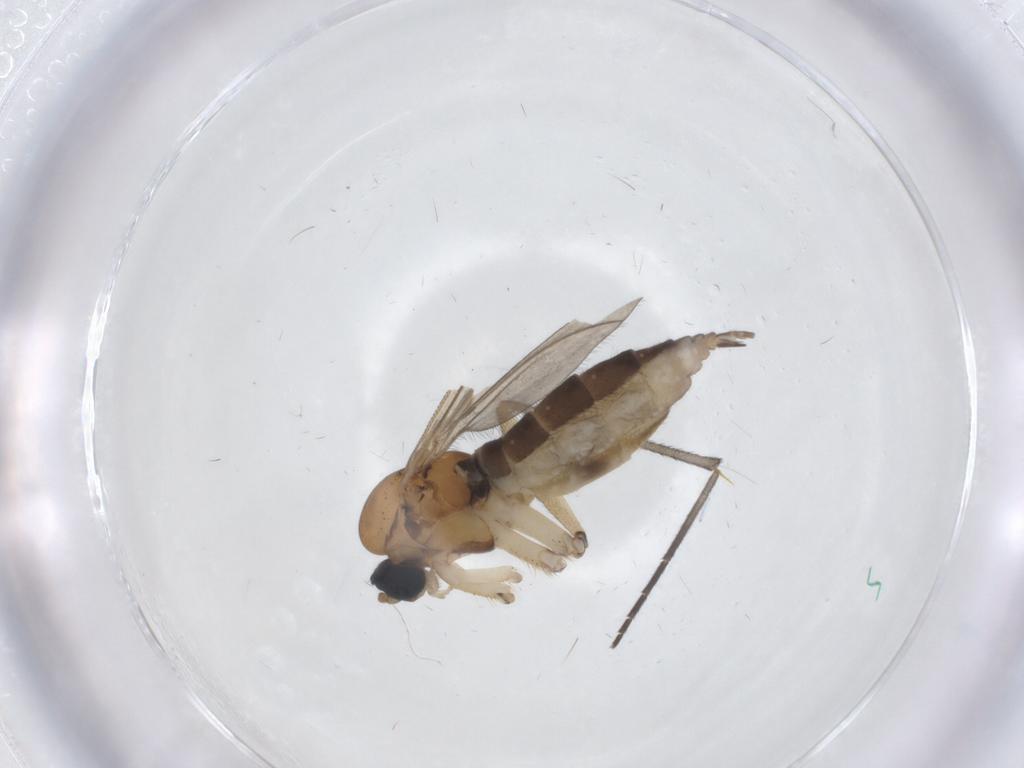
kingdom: Animalia
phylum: Arthropoda
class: Insecta
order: Diptera
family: Sciaridae
